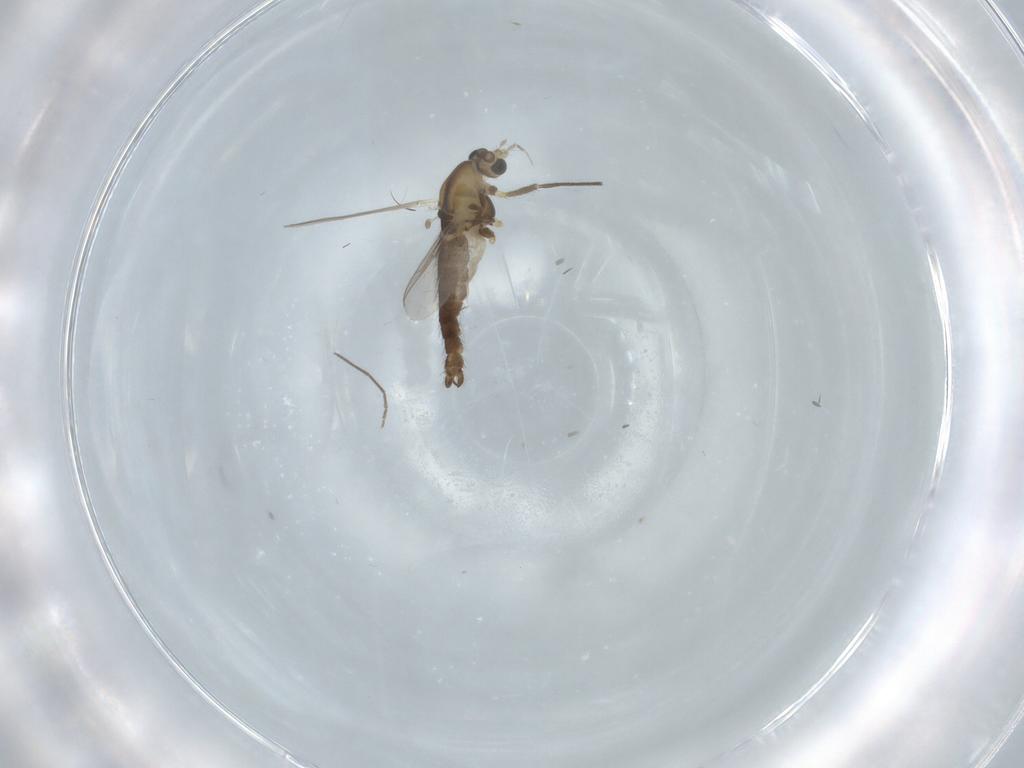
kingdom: Animalia
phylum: Arthropoda
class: Insecta
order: Diptera
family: Chironomidae
